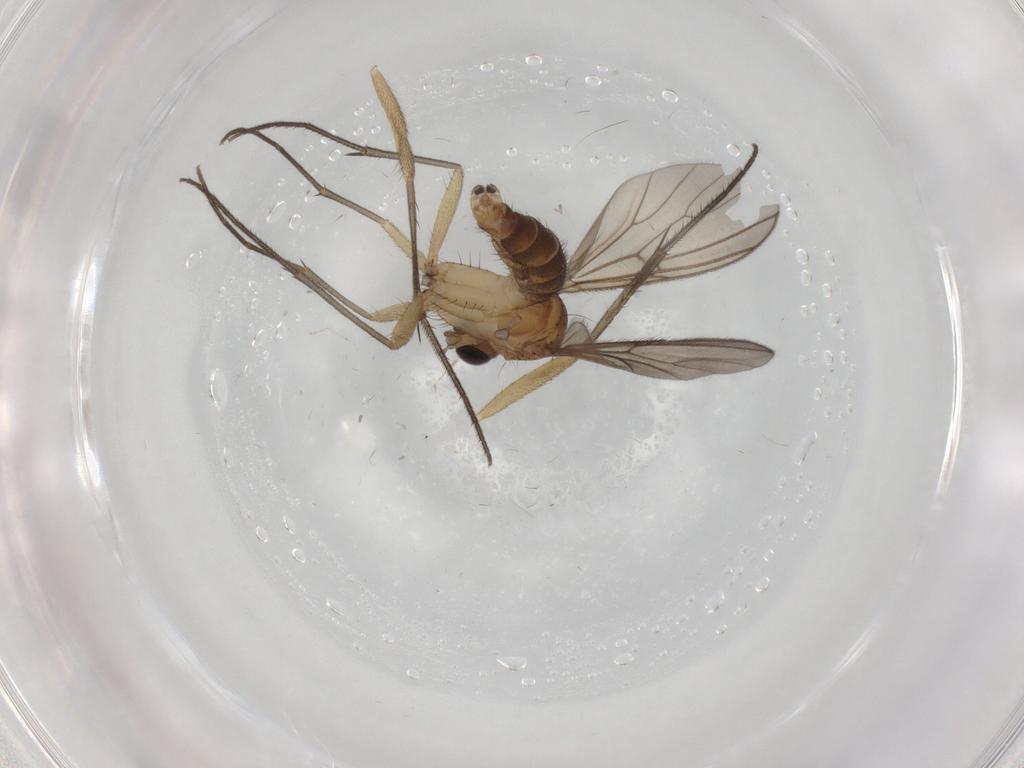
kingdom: Animalia
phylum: Arthropoda
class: Insecta
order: Diptera
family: Cecidomyiidae
